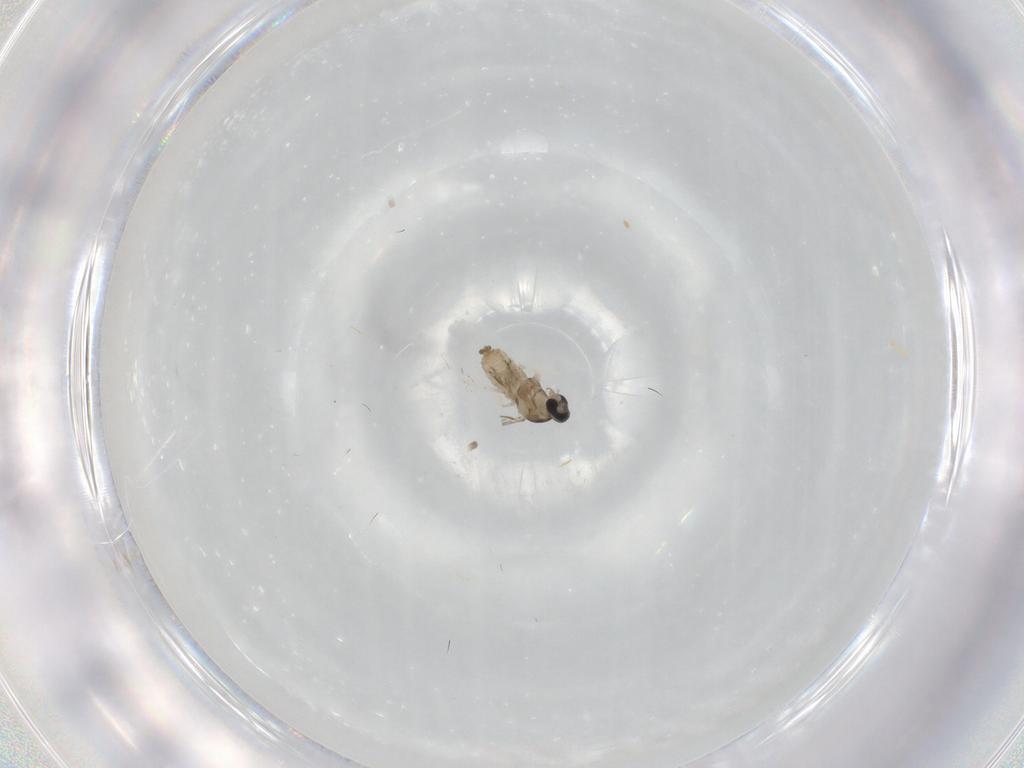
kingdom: Animalia
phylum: Arthropoda
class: Insecta
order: Diptera
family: Cecidomyiidae
